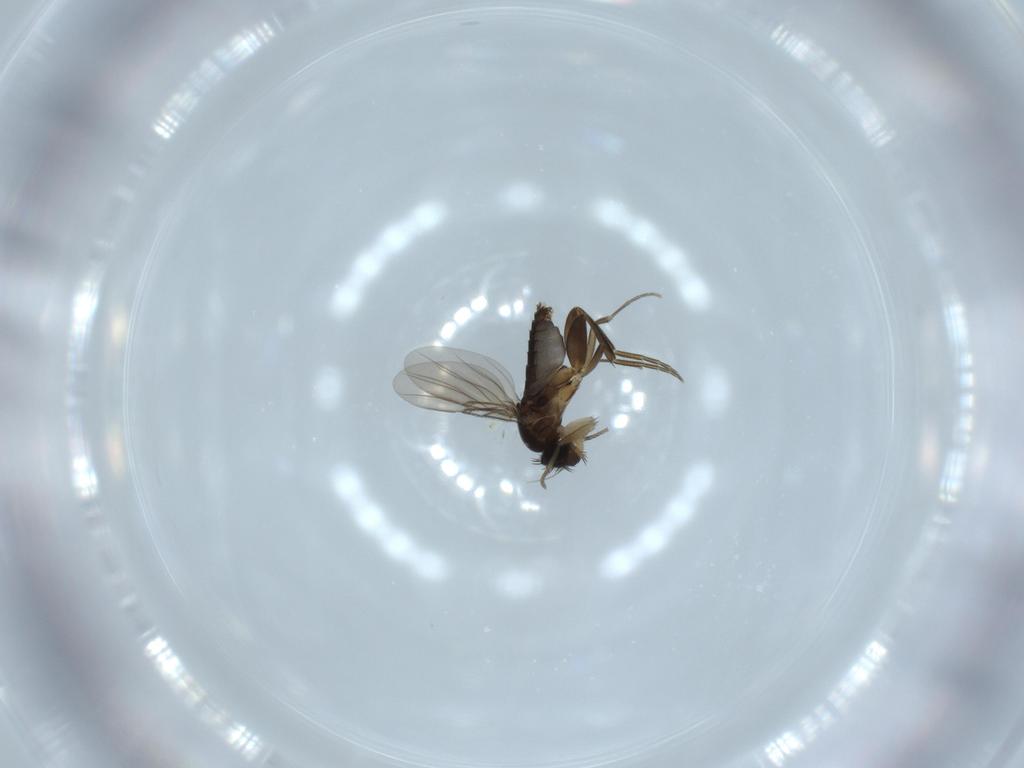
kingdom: Animalia
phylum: Arthropoda
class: Insecta
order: Diptera
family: Phoridae
